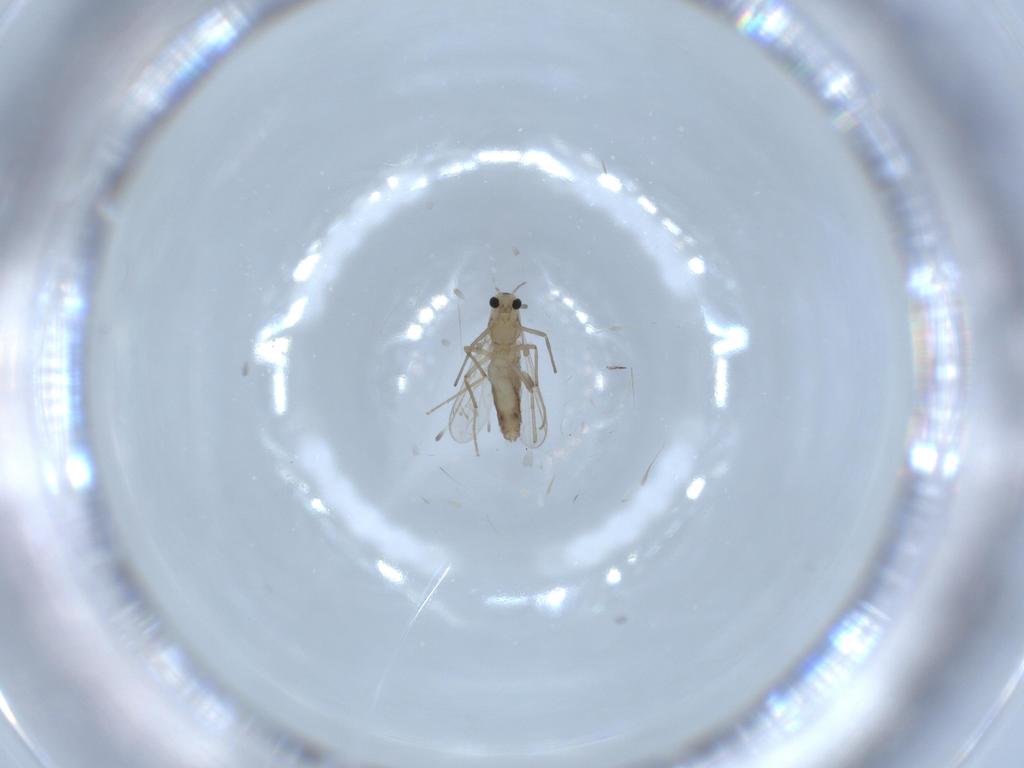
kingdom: Animalia
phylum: Arthropoda
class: Insecta
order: Diptera
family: Chironomidae
